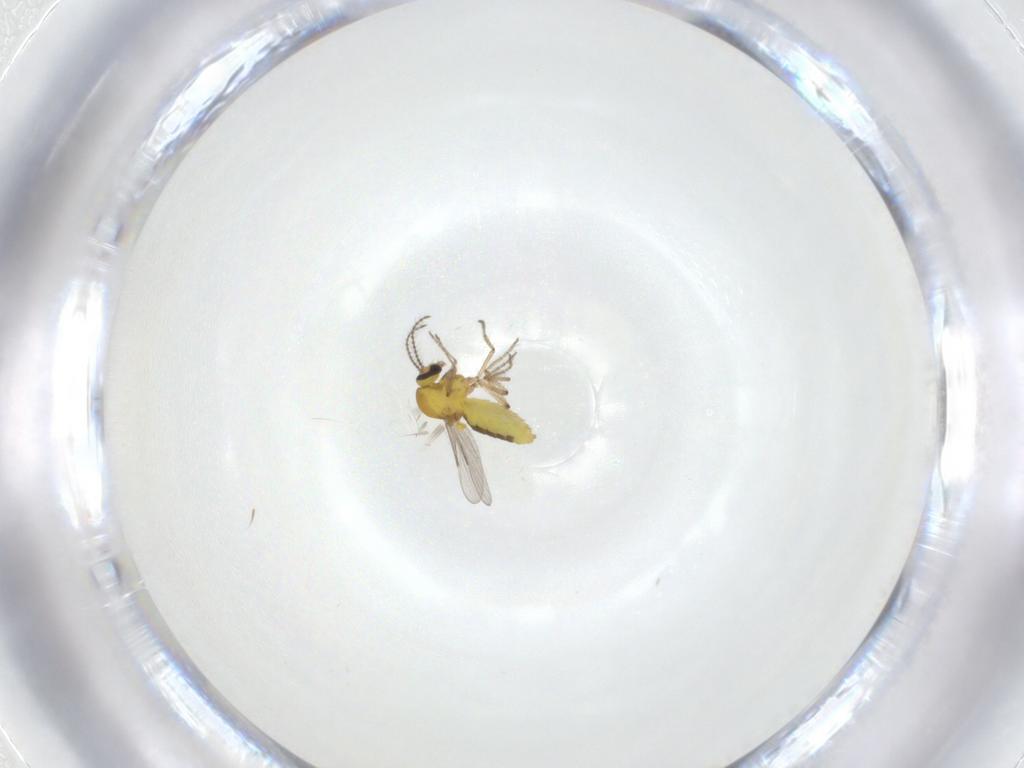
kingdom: Animalia
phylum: Arthropoda
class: Insecta
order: Diptera
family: Ceratopogonidae
